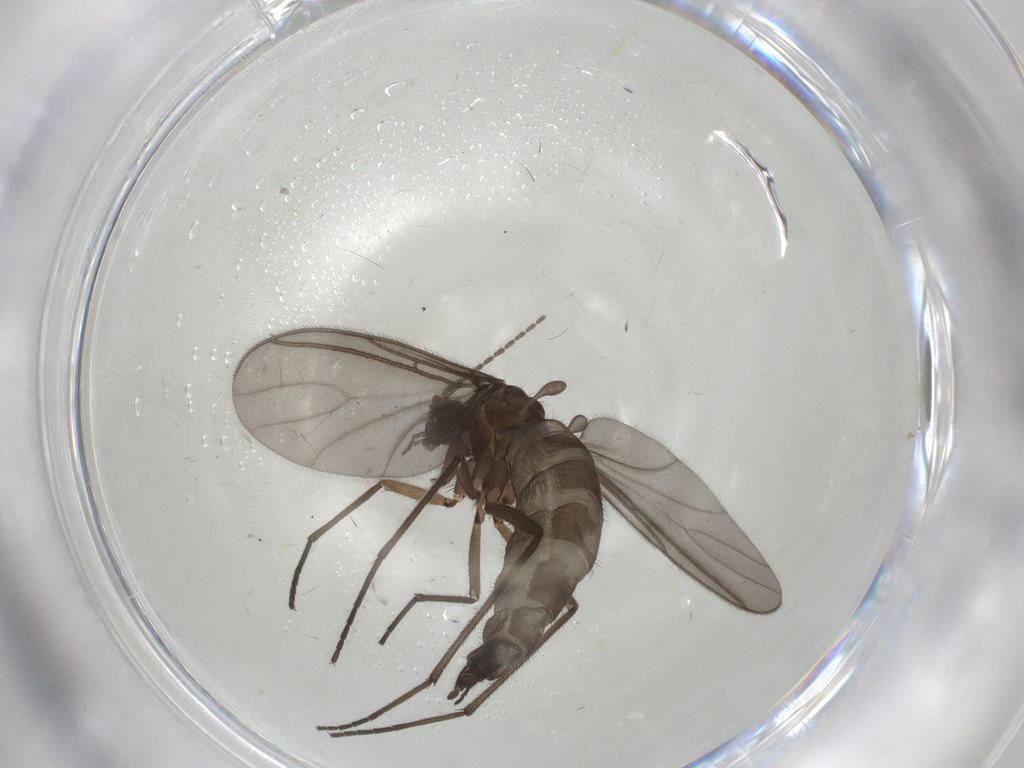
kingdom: Animalia
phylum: Arthropoda
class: Insecta
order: Diptera
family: Sciaridae
